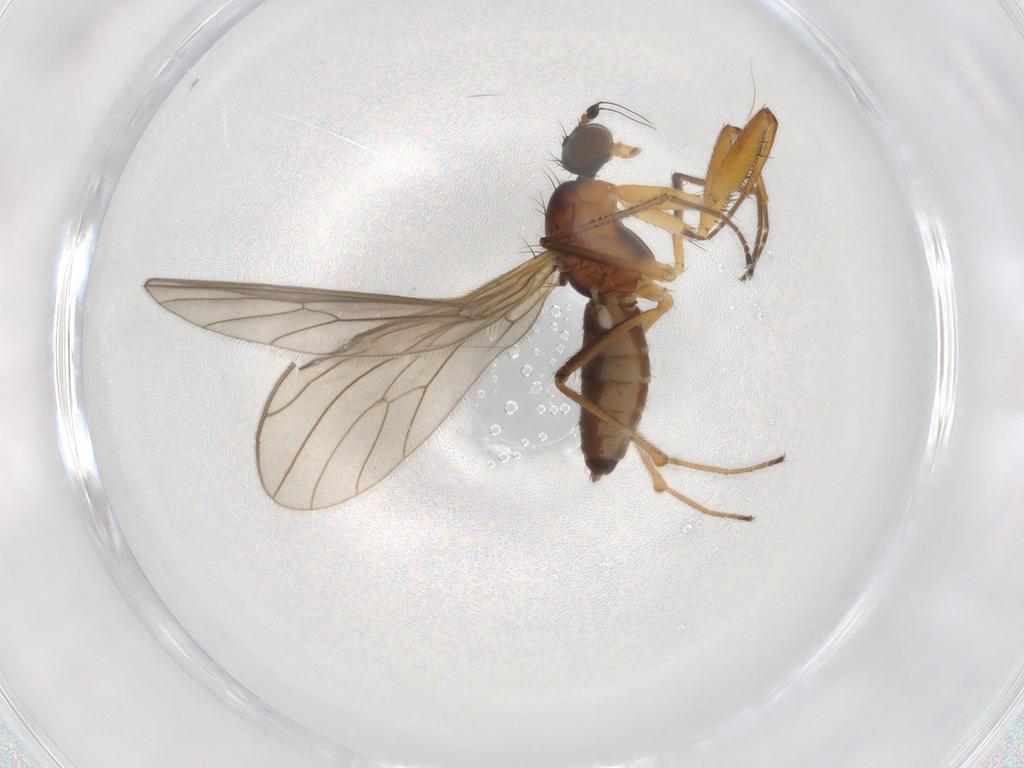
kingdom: Animalia
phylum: Arthropoda
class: Insecta
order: Diptera
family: Empididae
